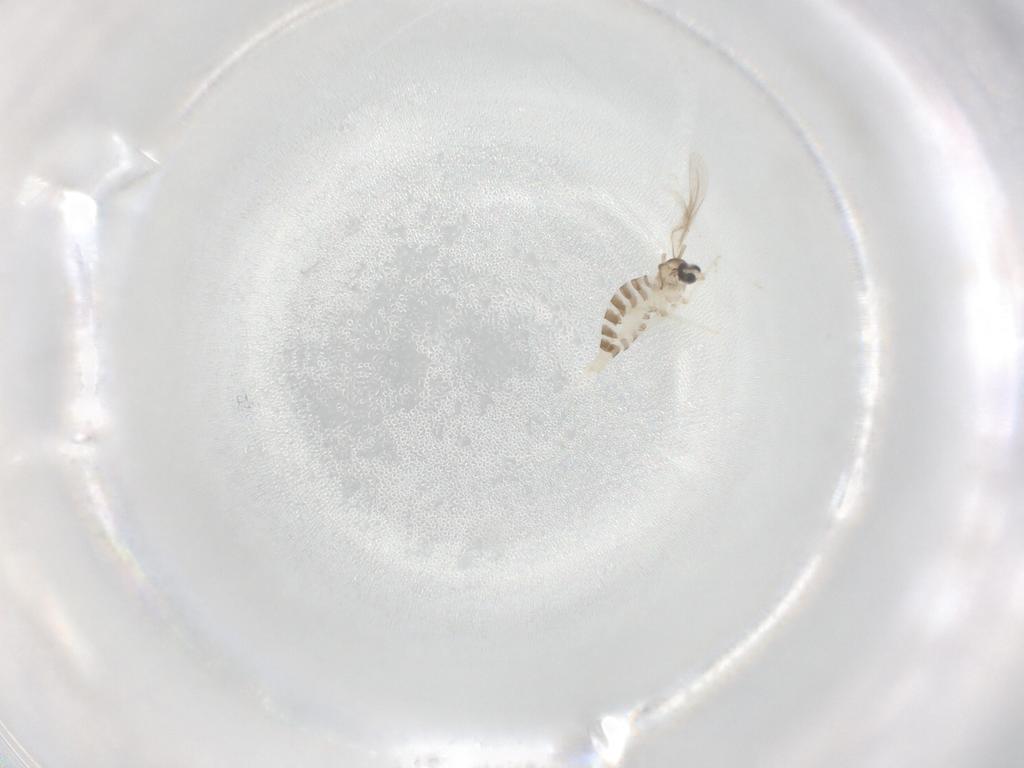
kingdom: Animalia
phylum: Arthropoda
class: Insecta
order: Diptera
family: Cecidomyiidae
